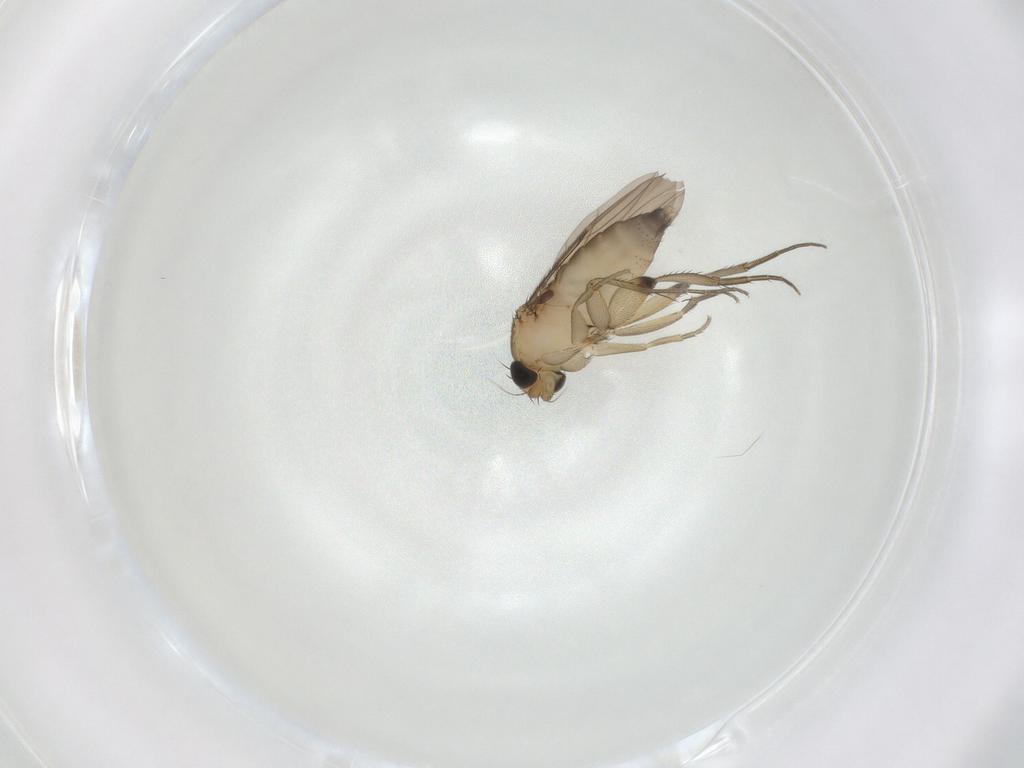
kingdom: Animalia
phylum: Arthropoda
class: Insecta
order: Diptera
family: Phoridae
